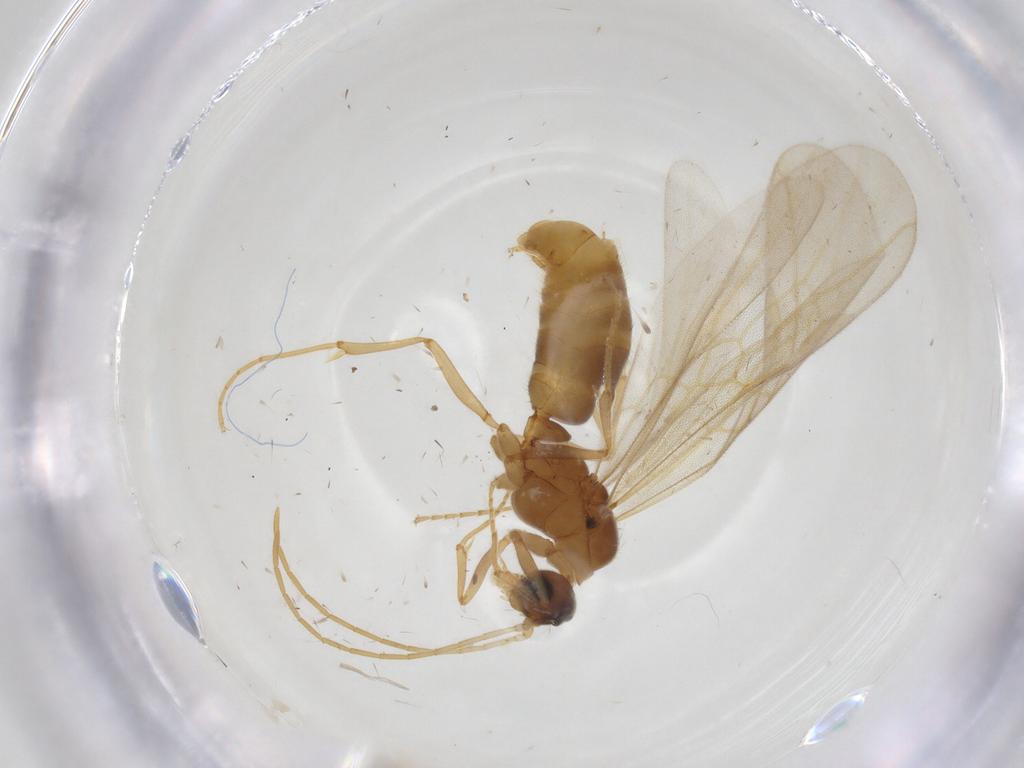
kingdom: Animalia
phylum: Arthropoda
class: Insecta
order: Hymenoptera
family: Formicidae
